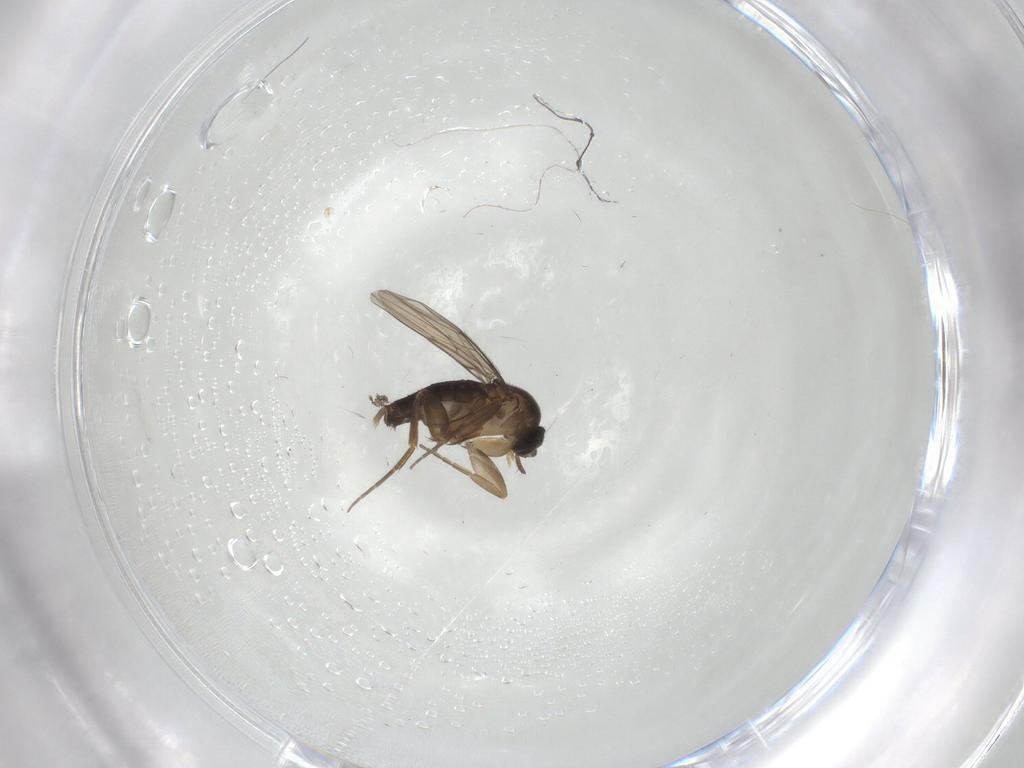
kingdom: Animalia
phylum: Arthropoda
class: Insecta
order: Diptera
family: Phoridae
